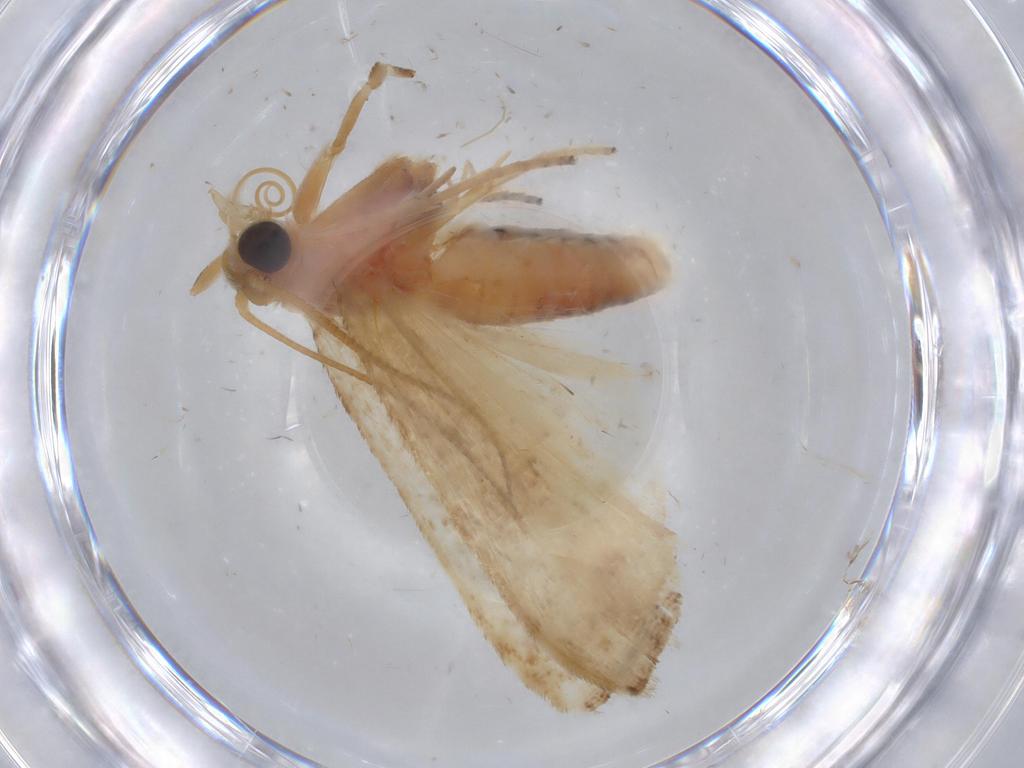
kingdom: Animalia
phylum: Arthropoda
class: Insecta
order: Lepidoptera
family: Pyralidae
